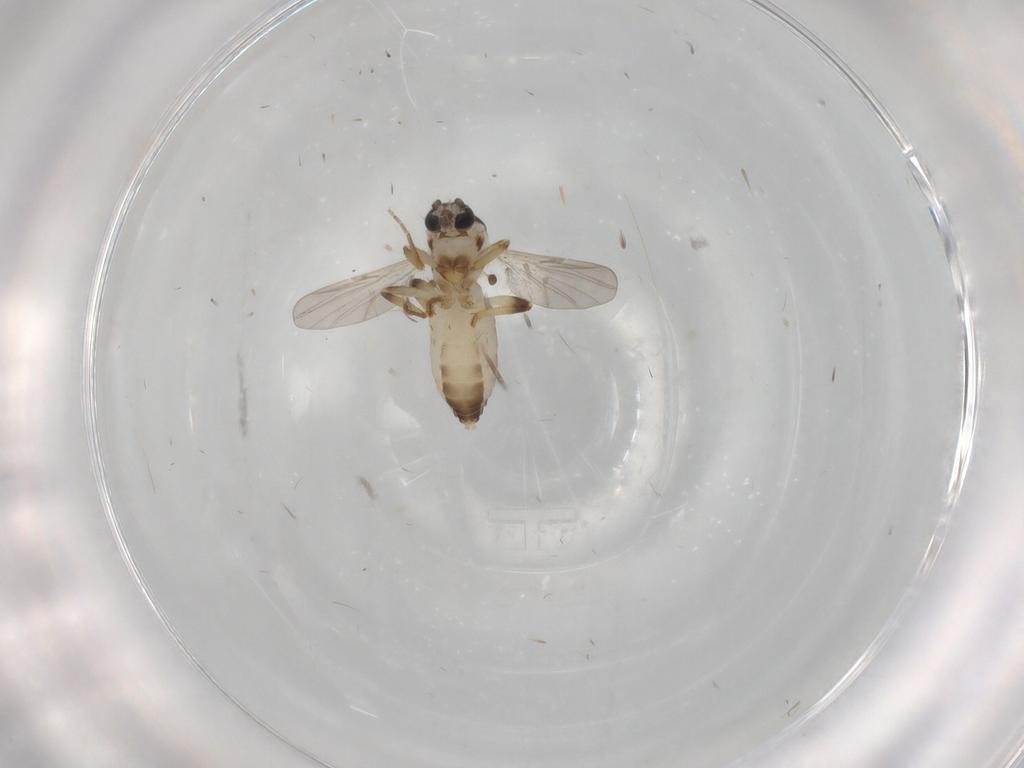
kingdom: Animalia
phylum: Arthropoda
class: Insecta
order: Diptera
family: Ceratopogonidae
